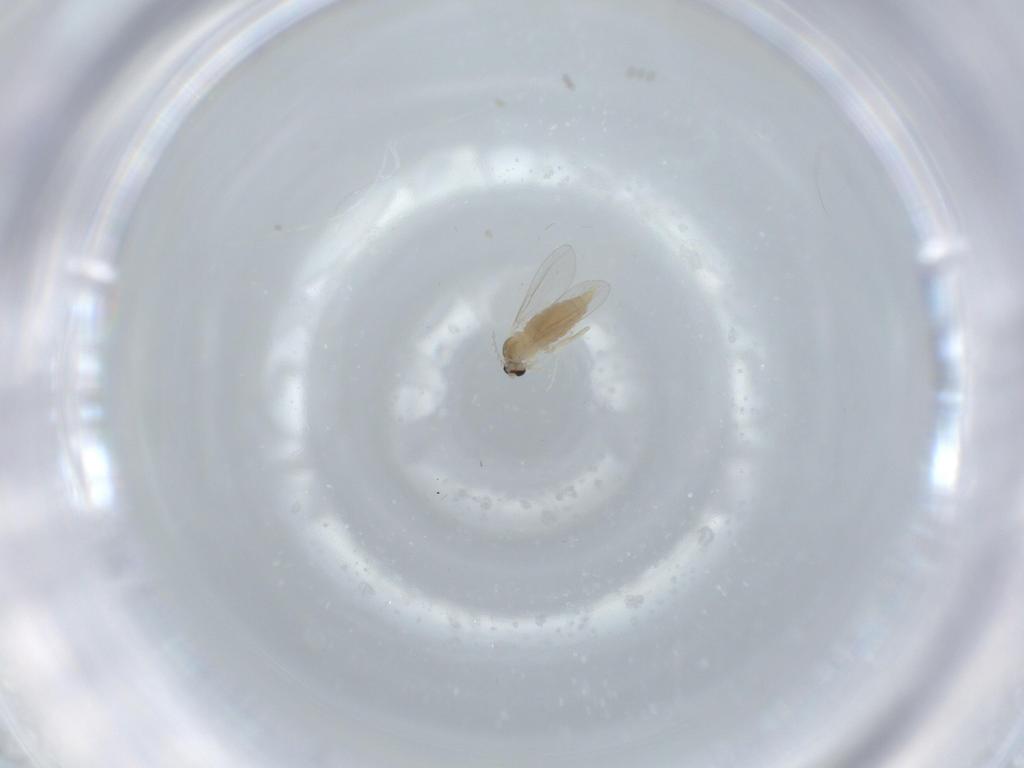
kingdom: Animalia
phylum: Arthropoda
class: Insecta
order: Diptera
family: Cecidomyiidae
